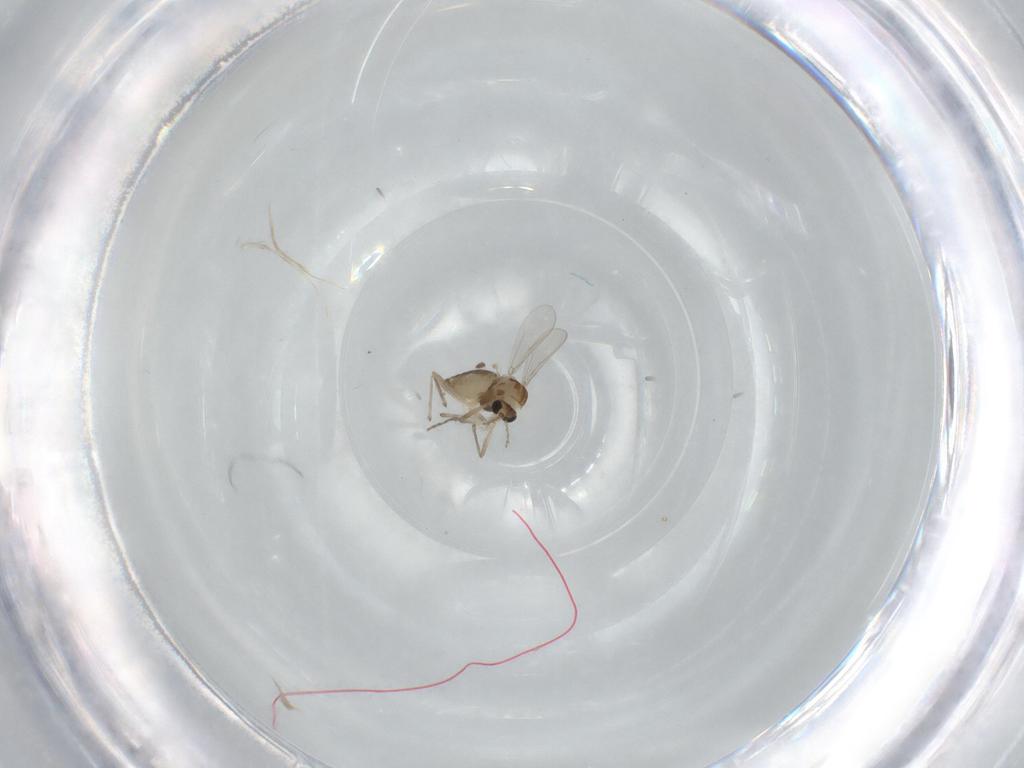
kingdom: Animalia
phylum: Arthropoda
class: Insecta
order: Diptera
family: Chironomidae
